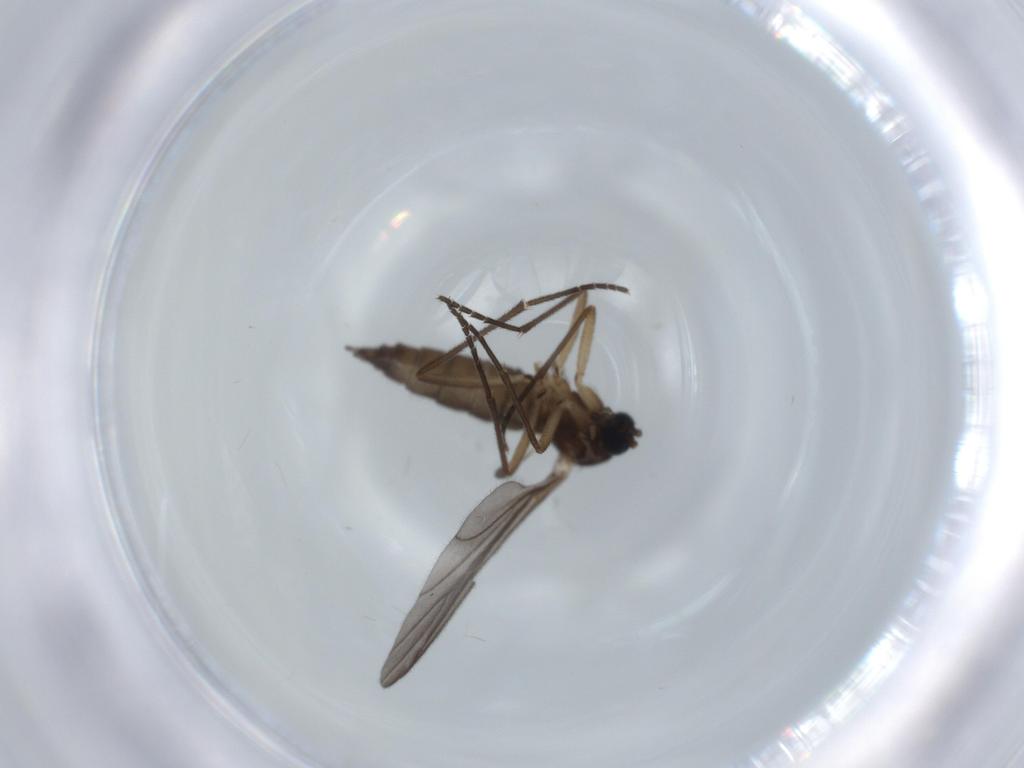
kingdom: Animalia
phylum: Arthropoda
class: Insecta
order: Diptera
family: Sciaridae
